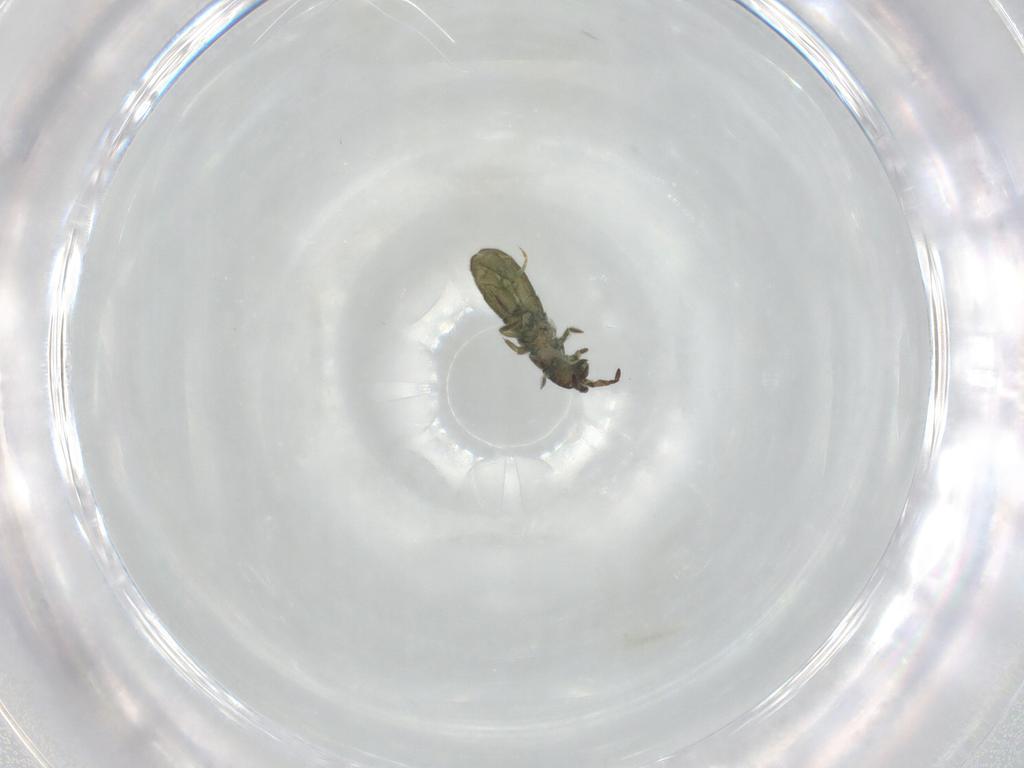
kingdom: Animalia
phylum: Arthropoda
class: Collembola
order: Entomobryomorpha
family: Isotomidae
